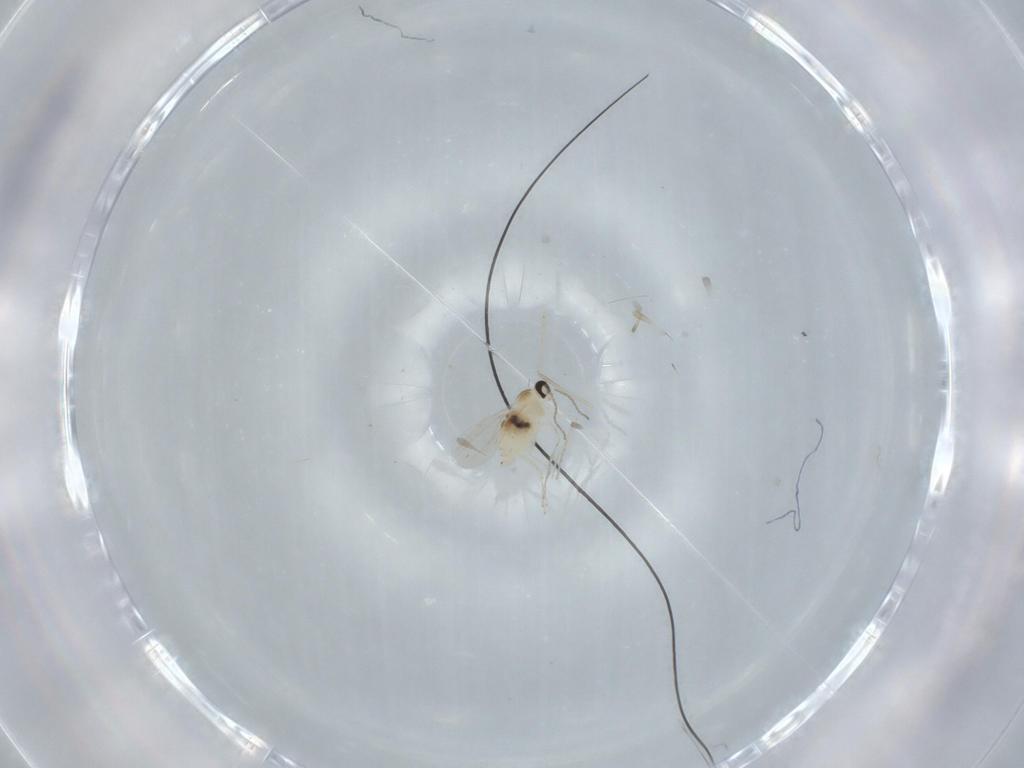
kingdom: Animalia
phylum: Arthropoda
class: Insecta
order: Diptera
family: Cecidomyiidae
